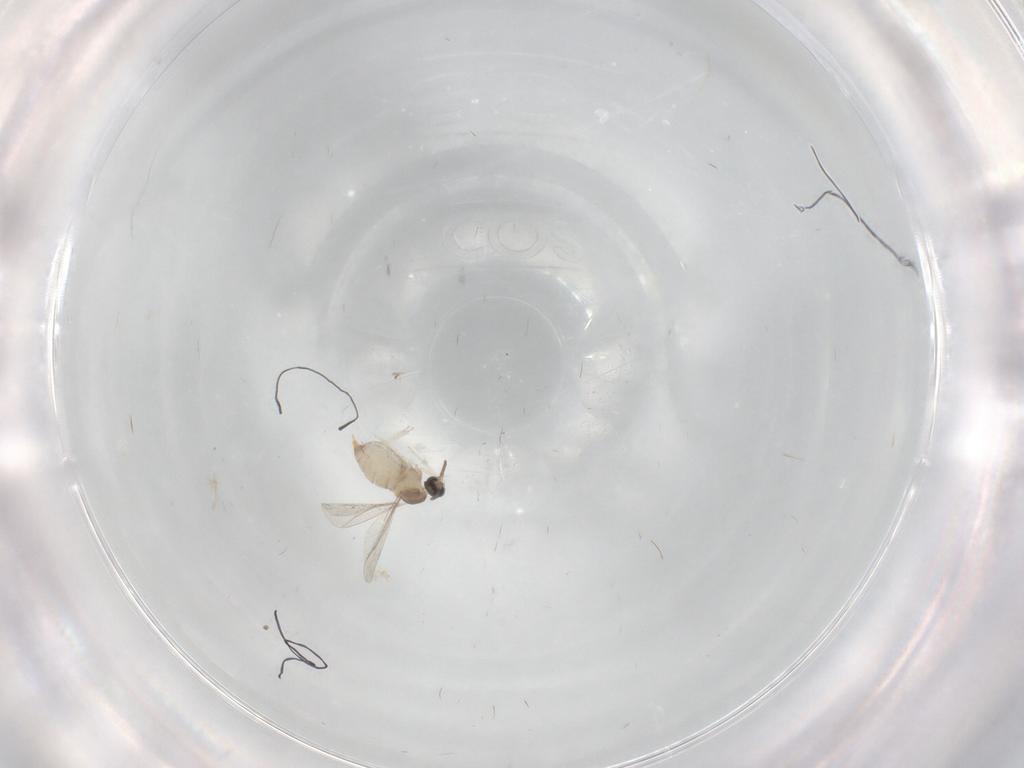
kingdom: Animalia
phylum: Arthropoda
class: Insecta
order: Diptera
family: Chironomidae
